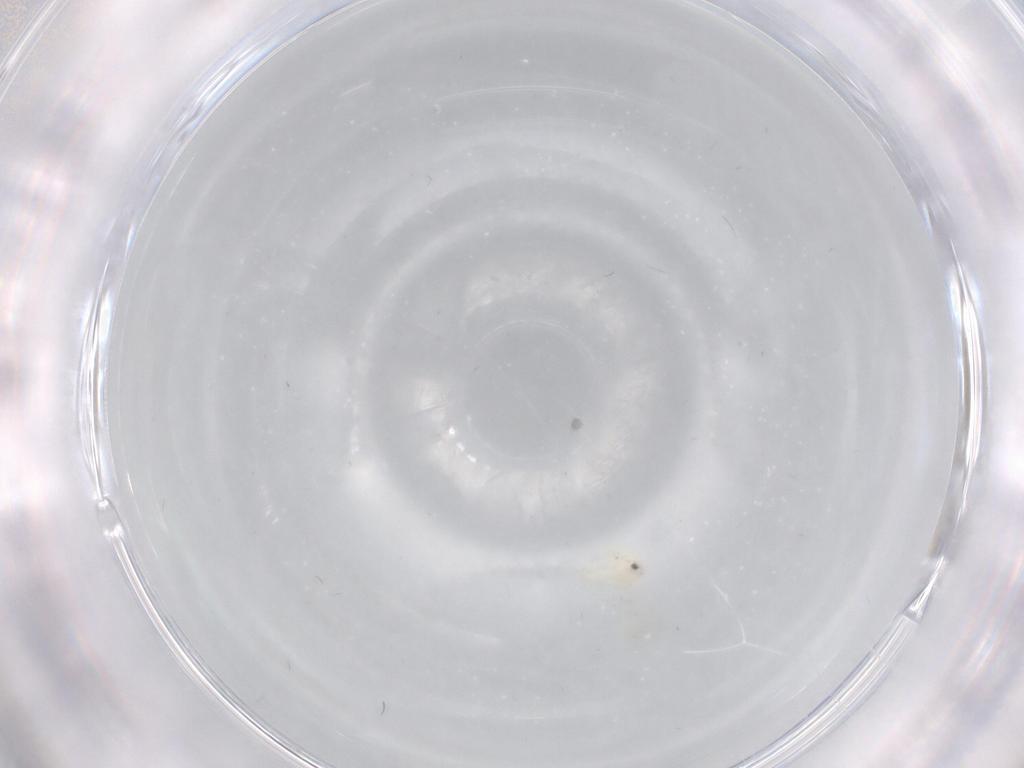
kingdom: Animalia
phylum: Arthropoda
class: Insecta
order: Hemiptera
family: Aleyrodidae
